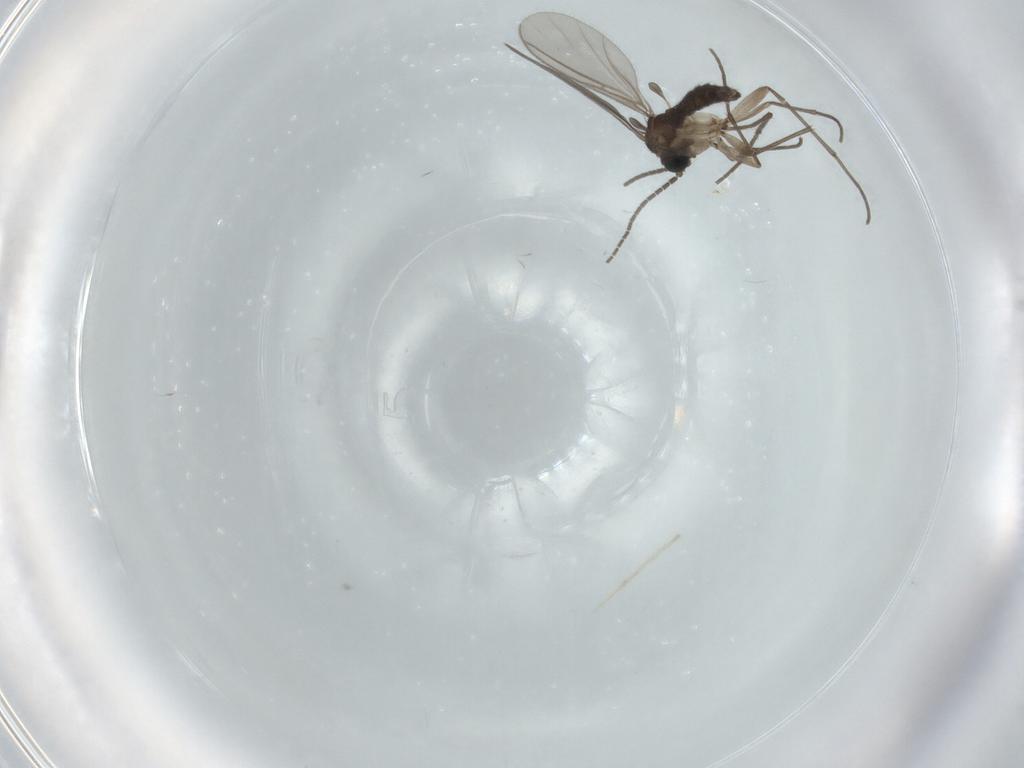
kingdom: Animalia
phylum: Arthropoda
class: Insecta
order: Diptera
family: Sciaridae
